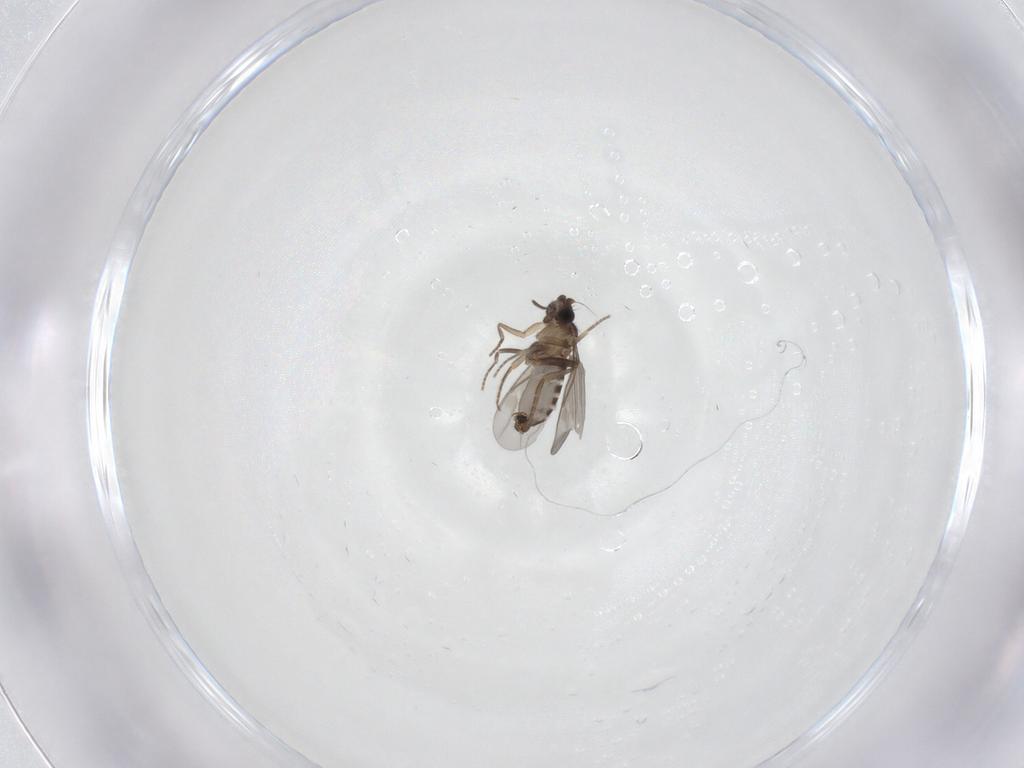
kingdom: Animalia
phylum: Arthropoda
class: Insecta
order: Diptera
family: Psychodidae
